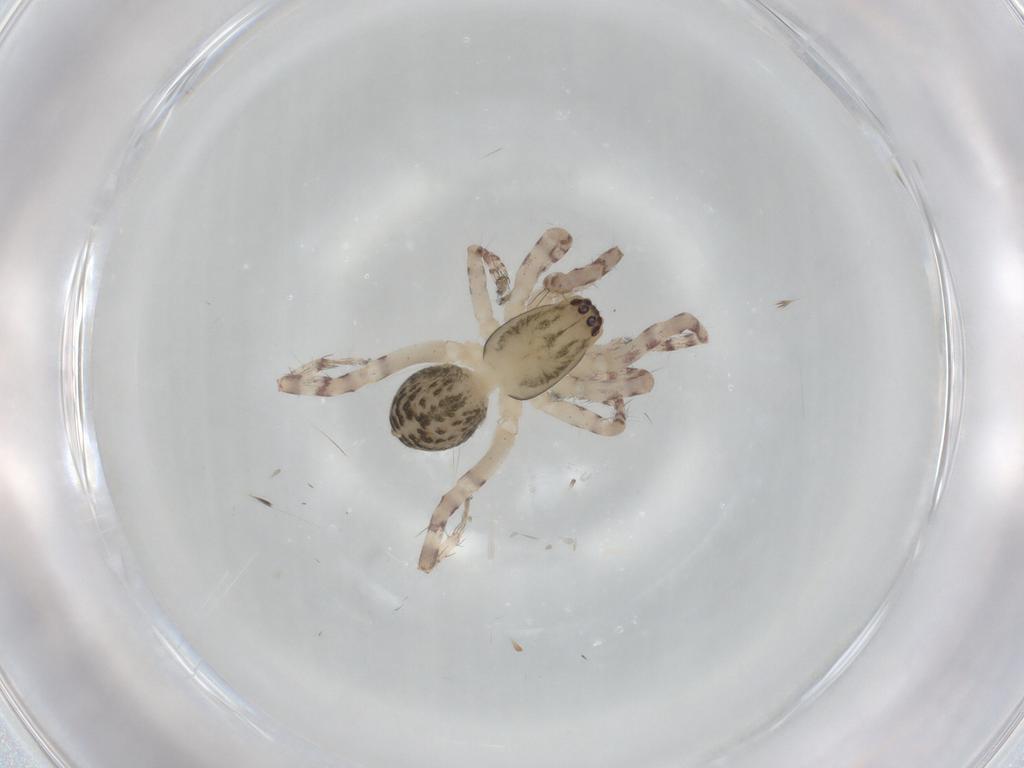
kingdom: Animalia
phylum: Arthropoda
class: Arachnida
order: Araneae
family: Anyphaenidae
